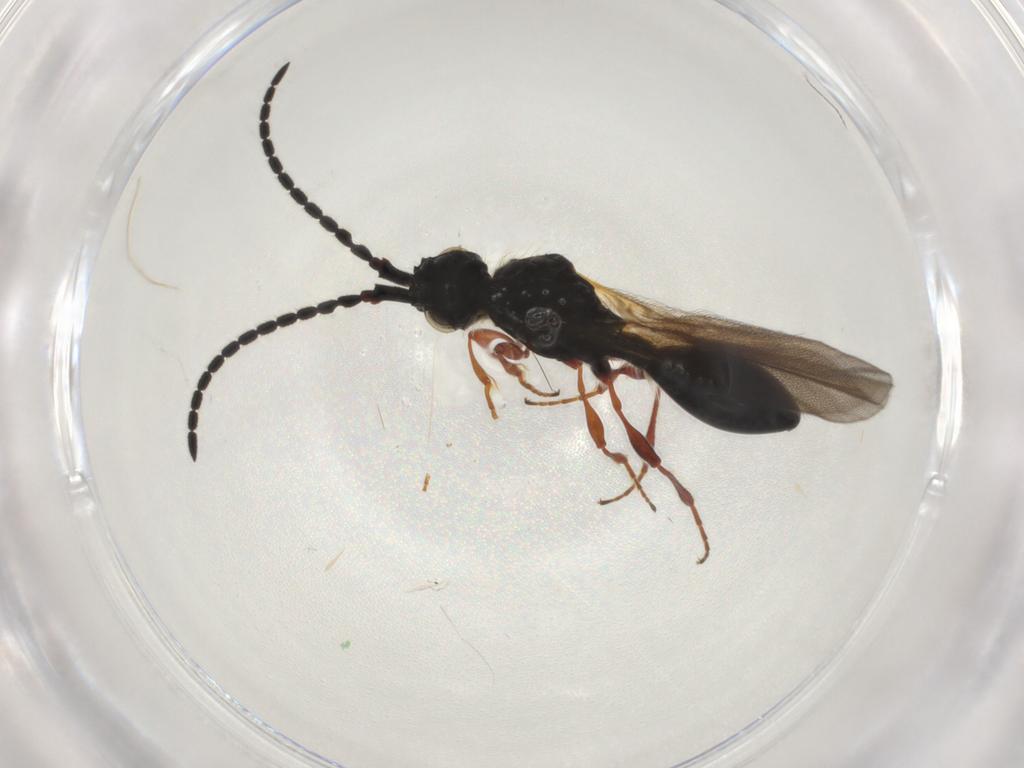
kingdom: Animalia
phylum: Arthropoda
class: Insecta
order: Hymenoptera
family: Diapriidae
